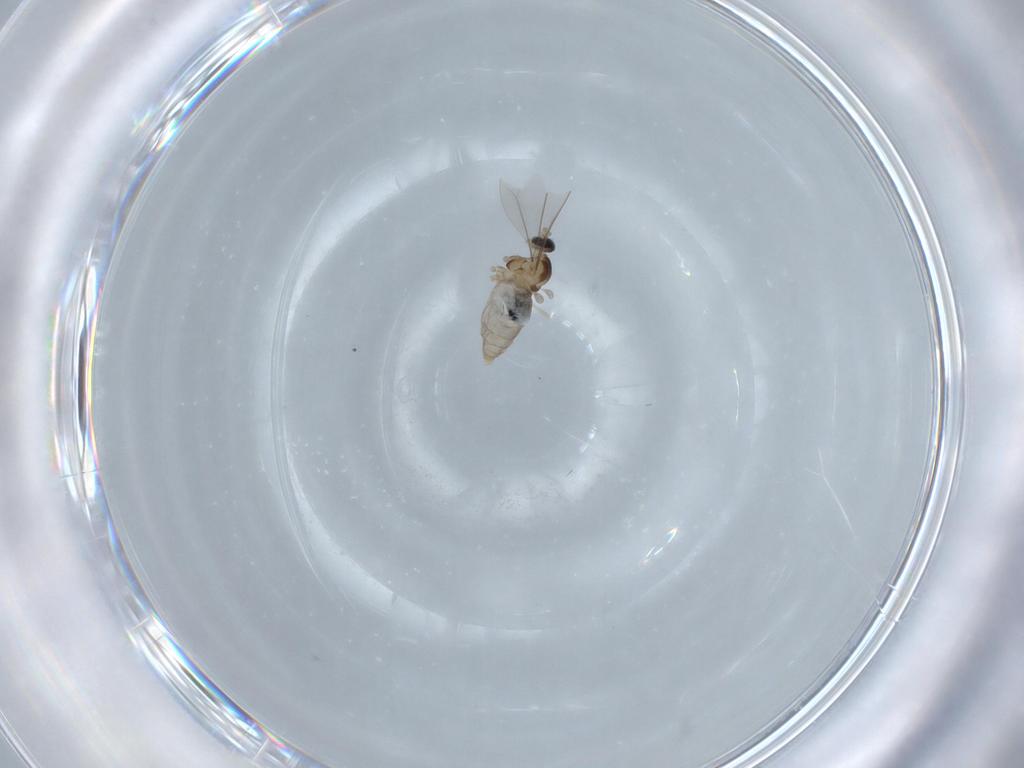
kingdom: Animalia
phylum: Arthropoda
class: Insecta
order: Diptera
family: Cecidomyiidae
